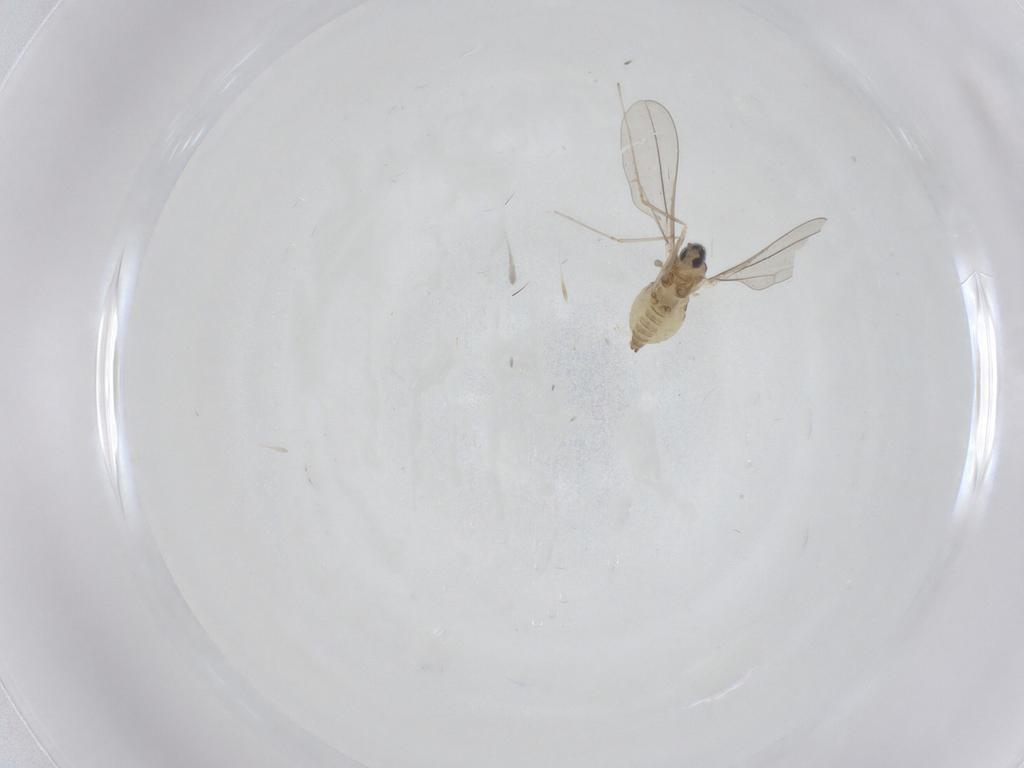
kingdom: Animalia
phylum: Arthropoda
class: Insecta
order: Diptera
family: Cecidomyiidae
